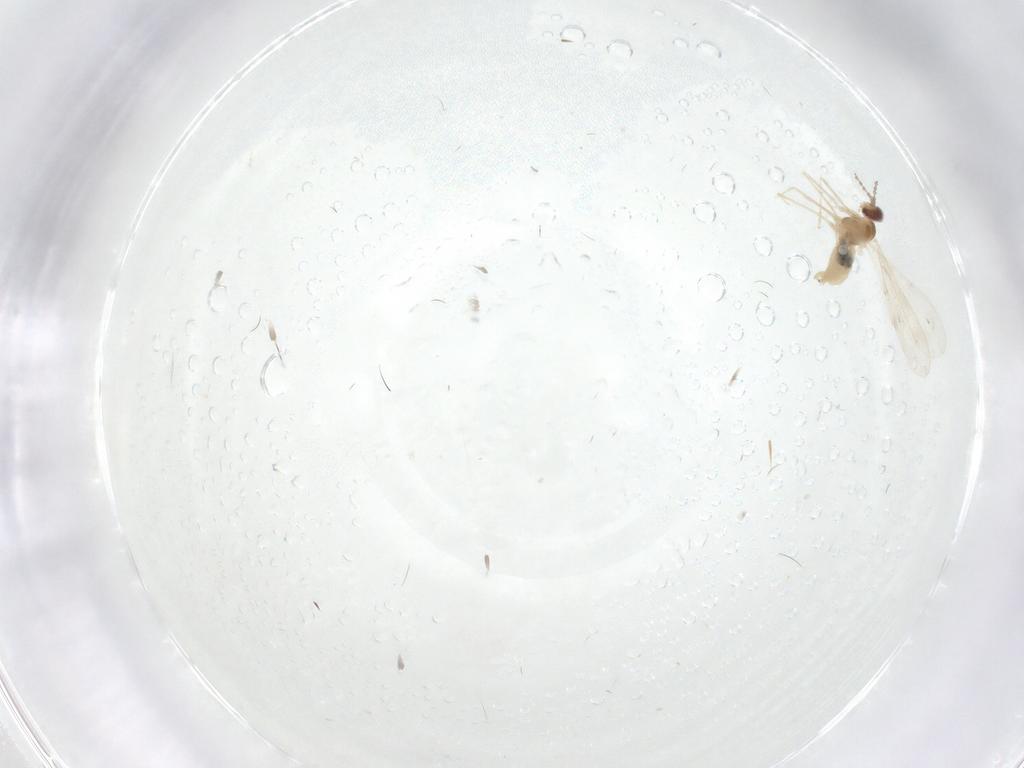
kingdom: Animalia
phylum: Arthropoda
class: Insecta
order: Diptera
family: Cecidomyiidae
